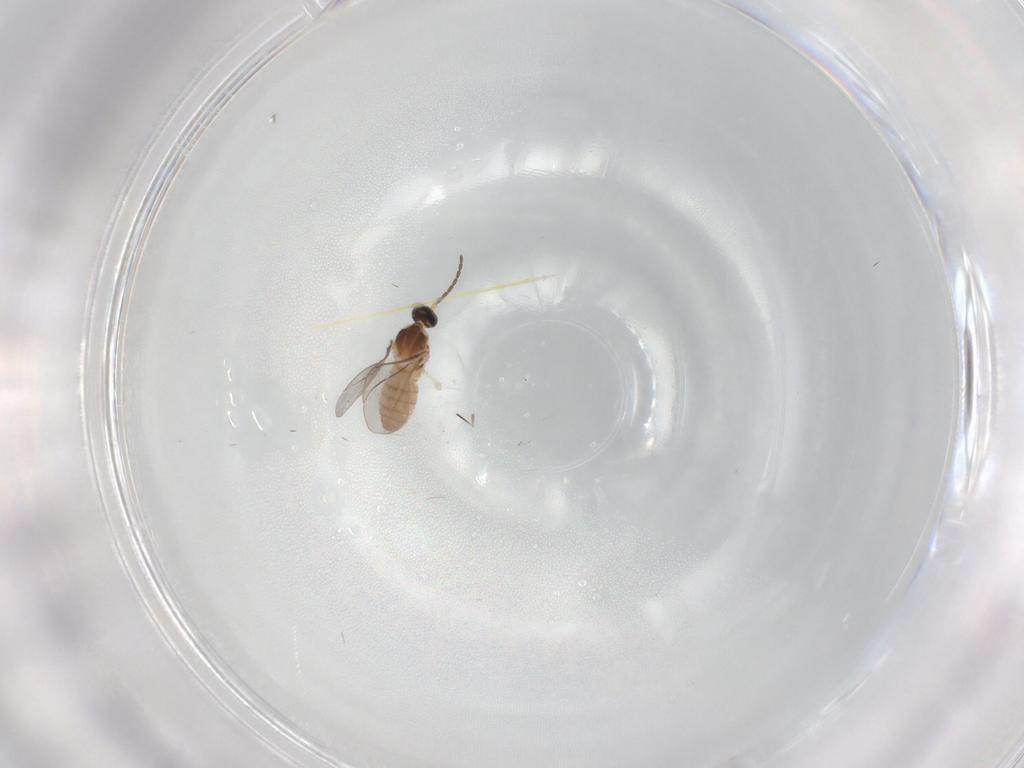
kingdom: Animalia
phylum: Arthropoda
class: Insecta
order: Diptera
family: Cecidomyiidae
